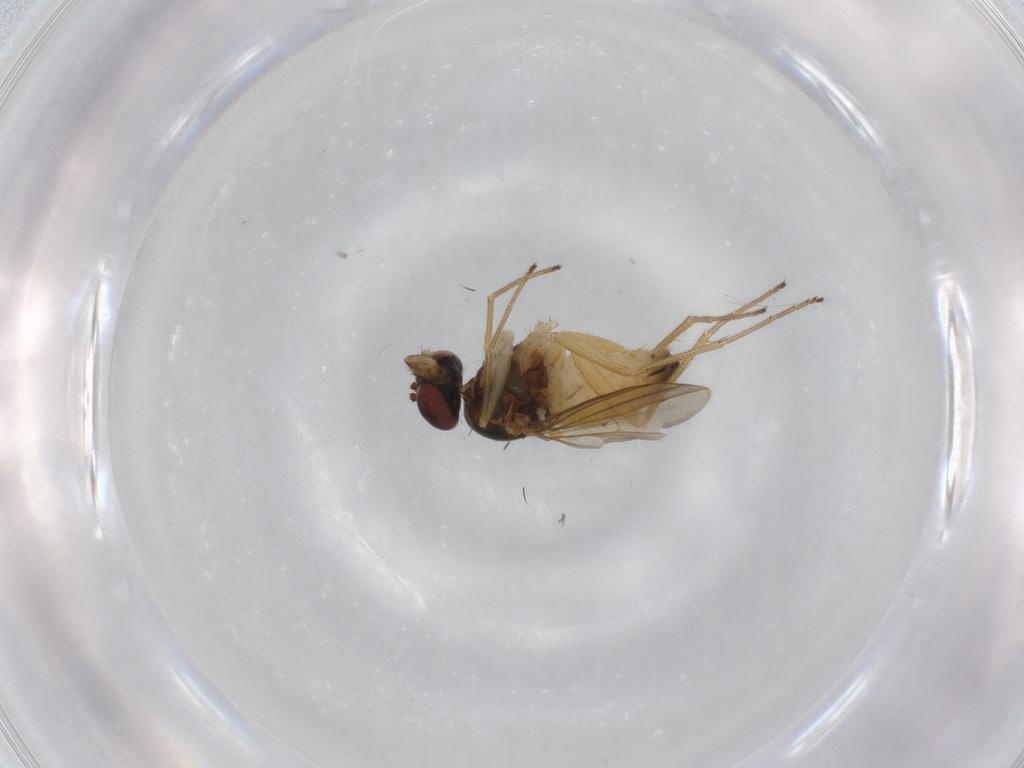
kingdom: Animalia
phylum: Arthropoda
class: Insecta
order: Diptera
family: Dolichopodidae
